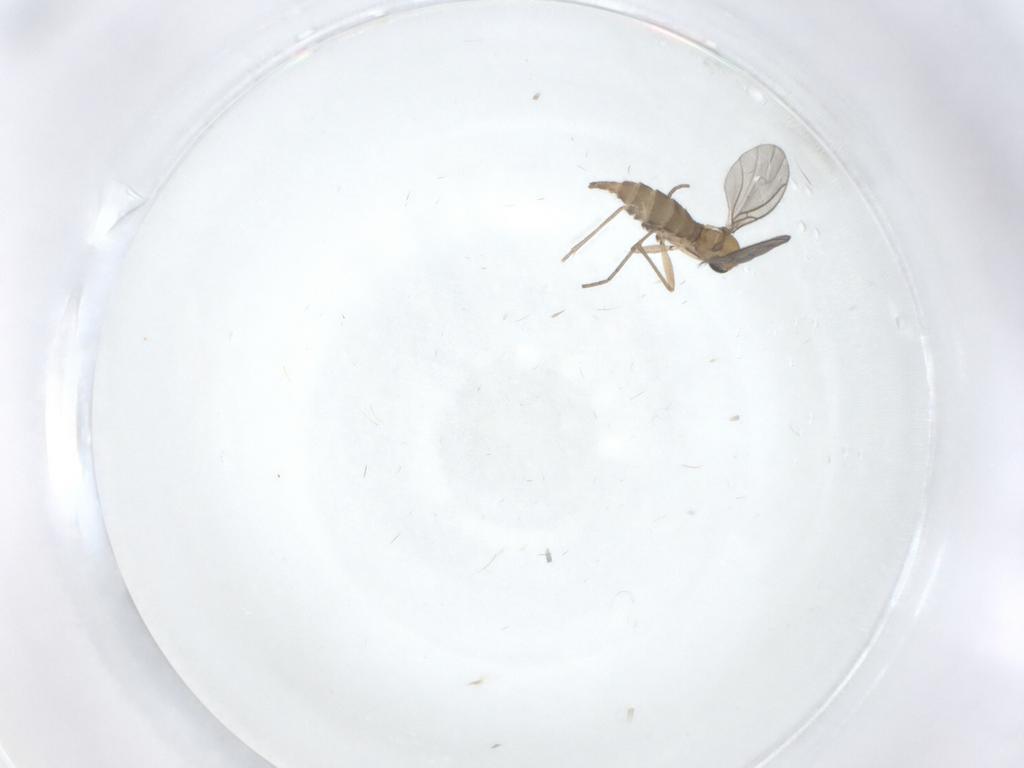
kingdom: Animalia
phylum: Arthropoda
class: Insecta
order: Diptera
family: Sciaridae
